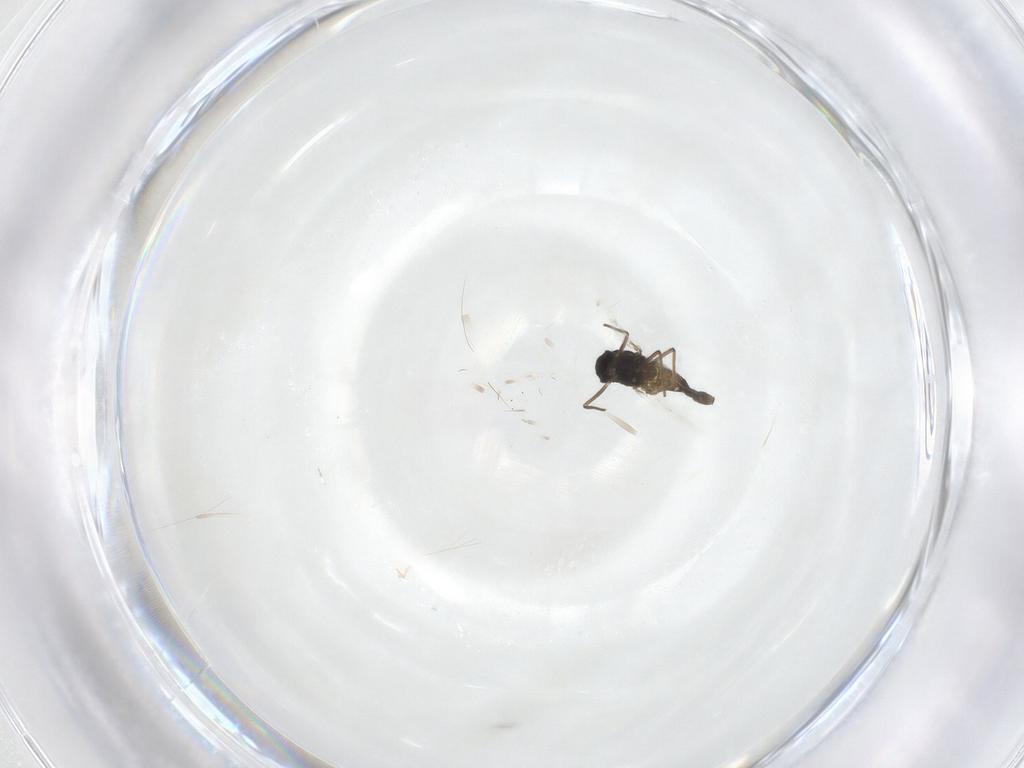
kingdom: Animalia
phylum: Arthropoda
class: Insecta
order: Diptera
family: Chironomidae
